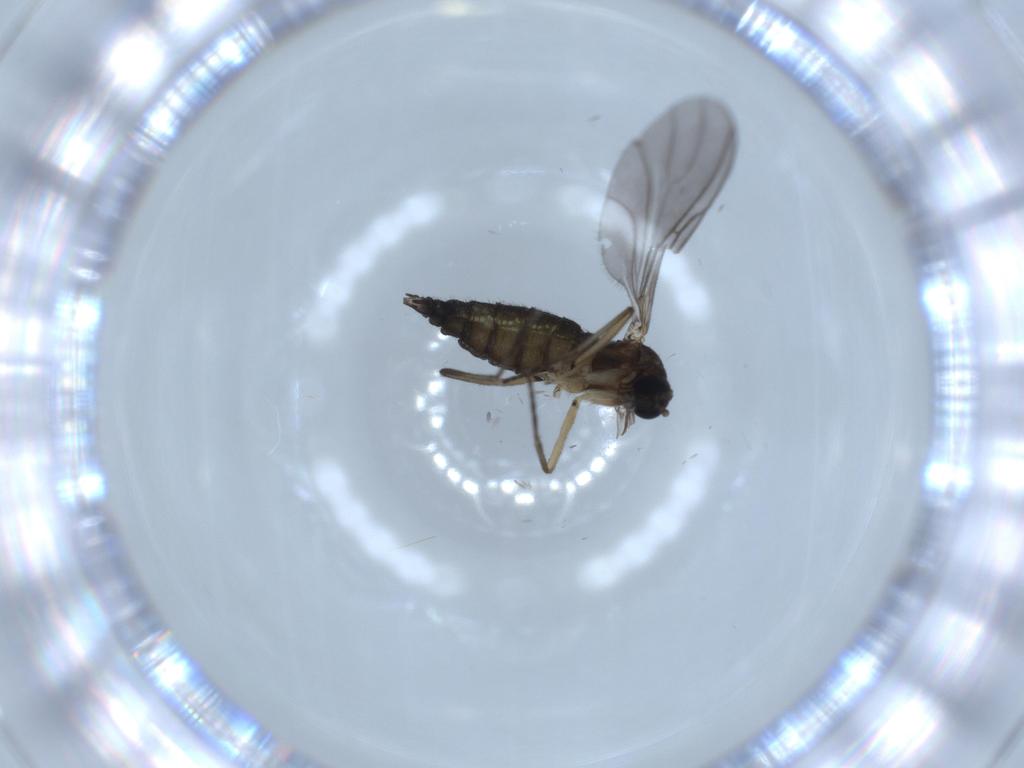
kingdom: Animalia
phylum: Arthropoda
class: Insecta
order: Diptera
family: Sciaridae
